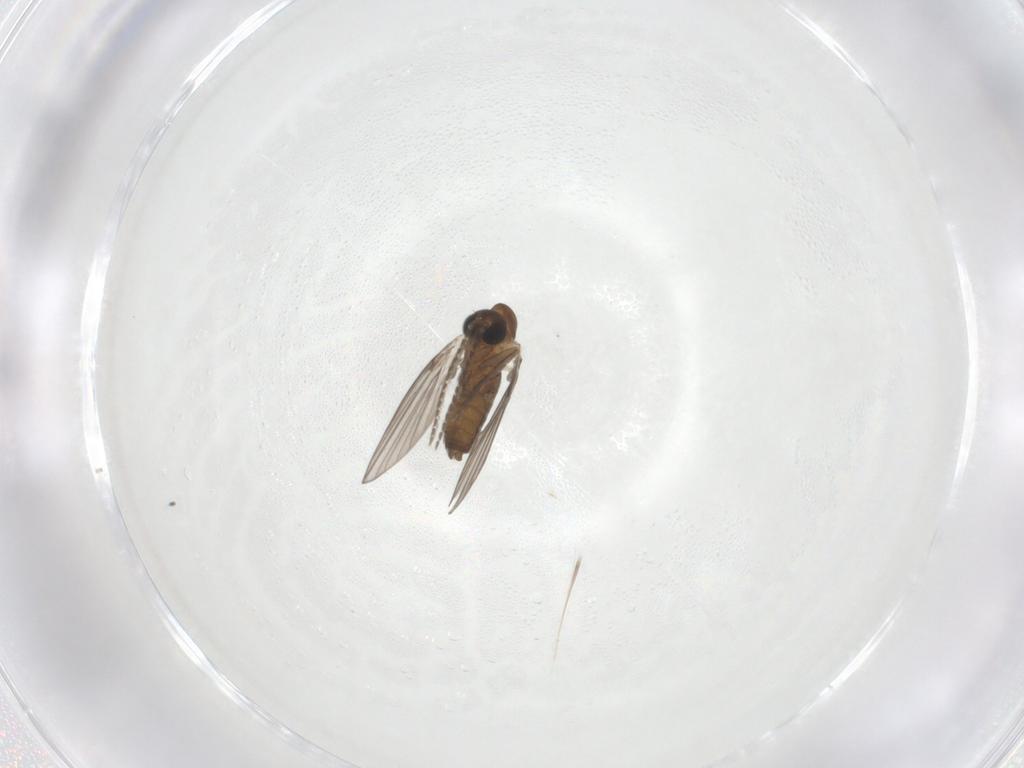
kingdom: Animalia
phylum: Arthropoda
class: Insecta
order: Diptera
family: Psychodidae
